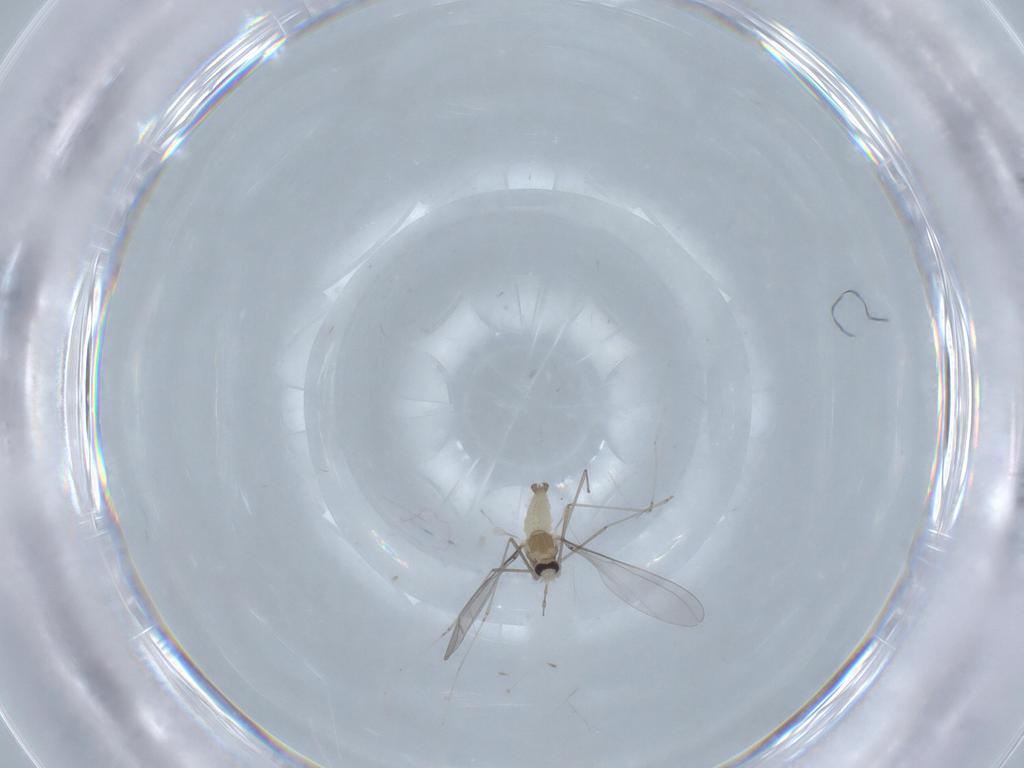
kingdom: Animalia
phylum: Arthropoda
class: Insecta
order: Diptera
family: Cecidomyiidae
